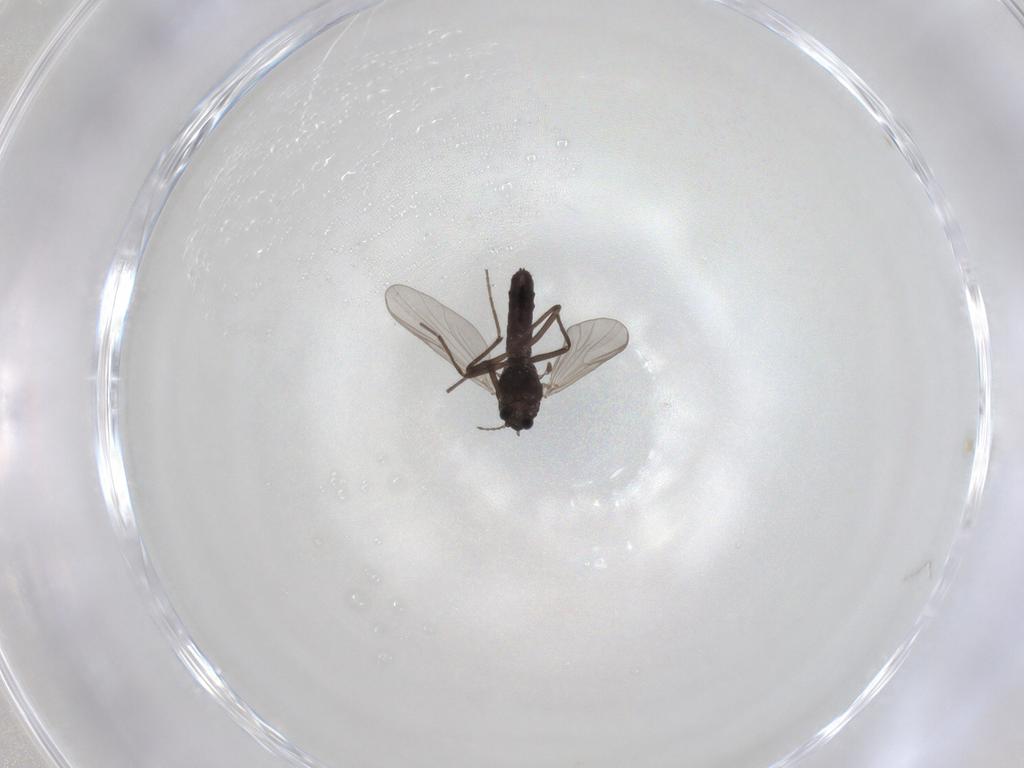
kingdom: Animalia
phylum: Arthropoda
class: Insecta
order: Diptera
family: Chironomidae
